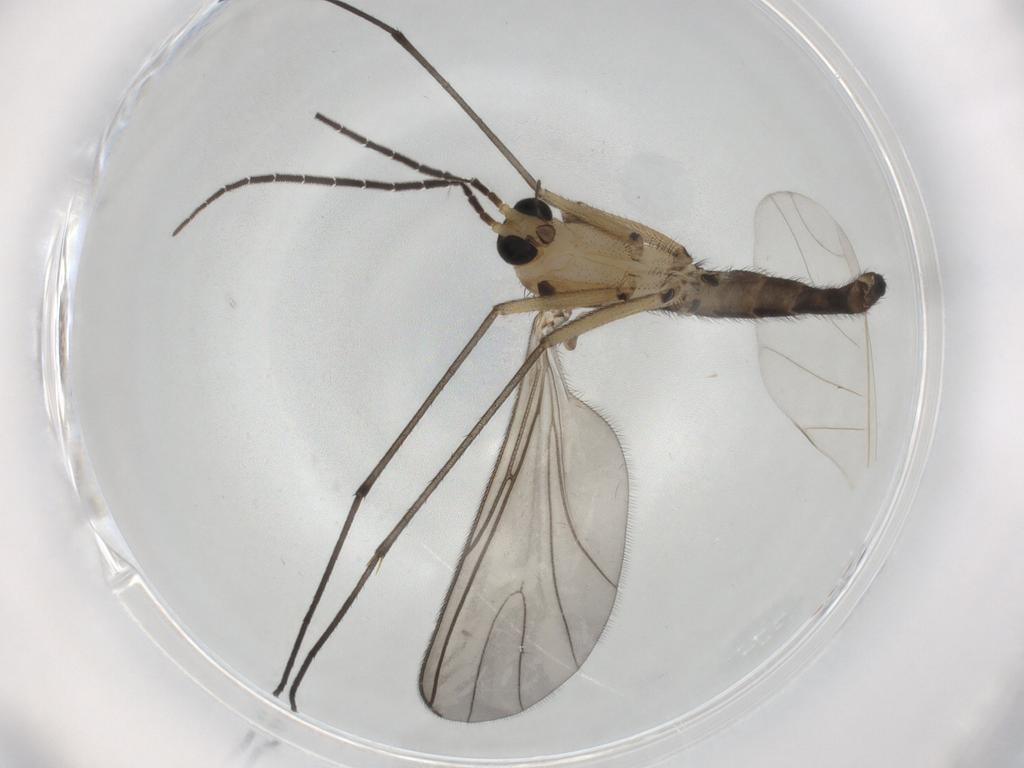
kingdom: Animalia
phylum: Arthropoda
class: Insecta
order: Diptera
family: Sciaridae
